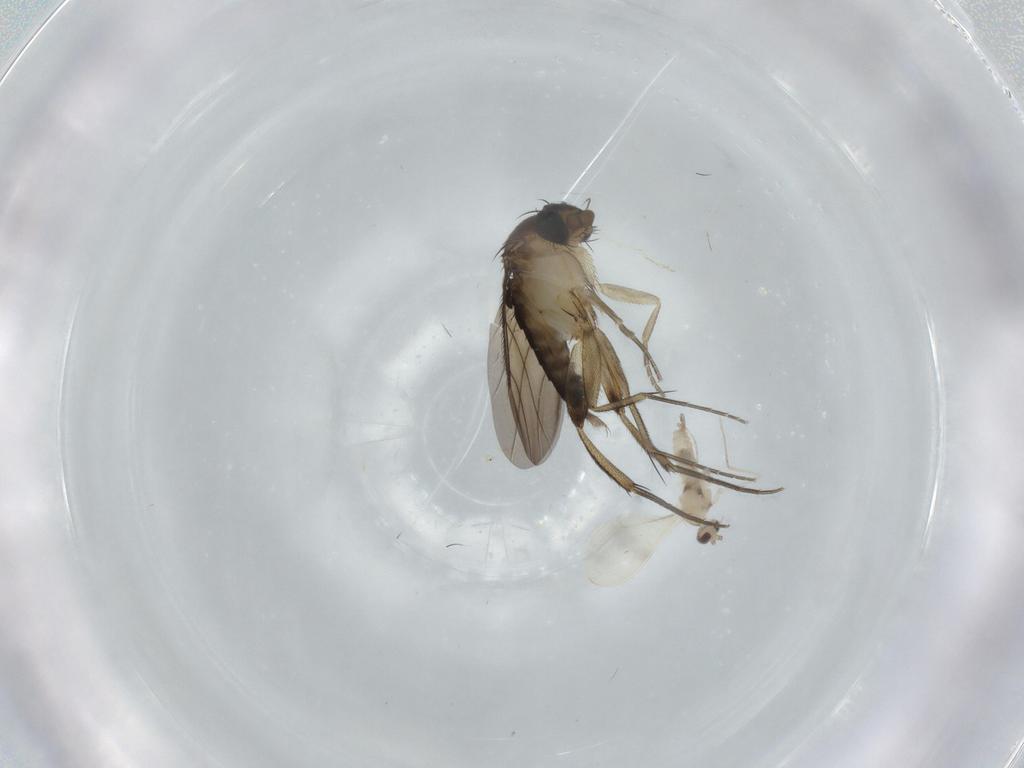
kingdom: Animalia
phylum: Arthropoda
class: Insecta
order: Diptera
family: Cecidomyiidae
